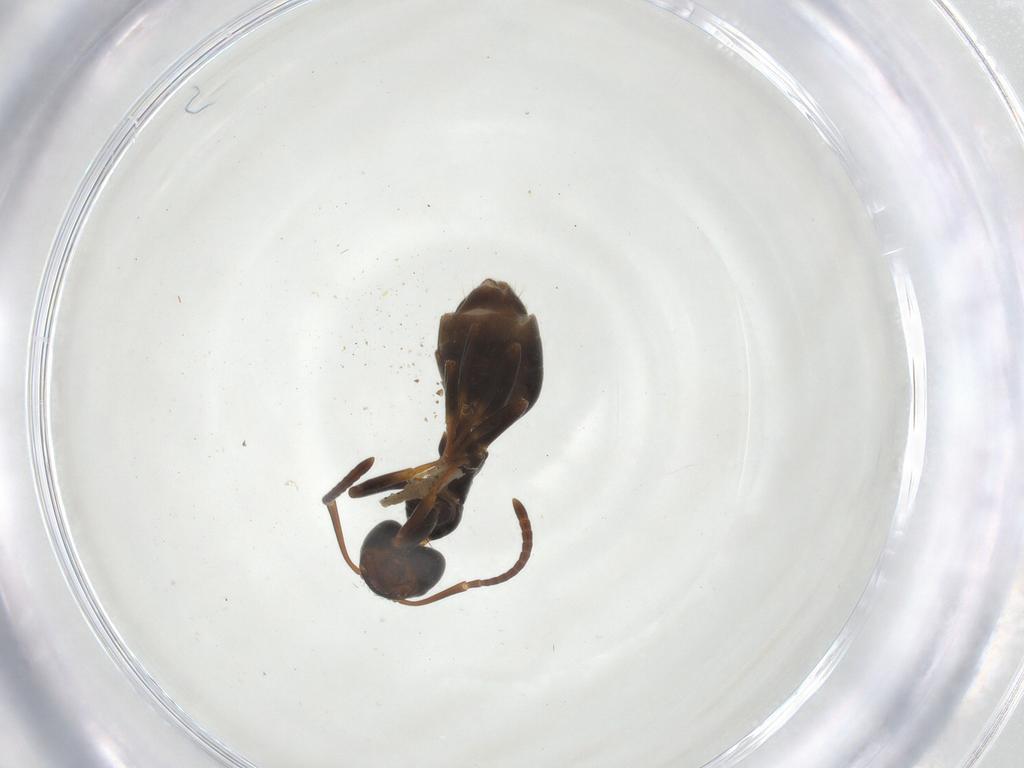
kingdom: Animalia
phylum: Arthropoda
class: Insecta
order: Hymenoptera
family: Formicidae
